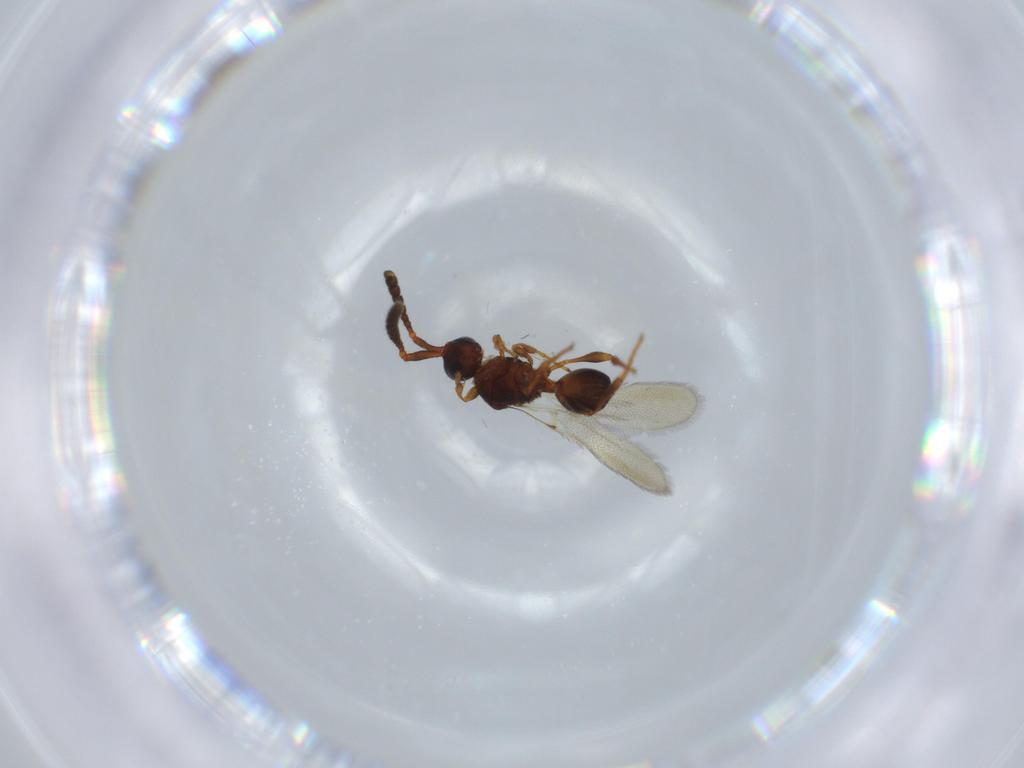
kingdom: Animalia
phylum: Arthropoda
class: Insecta
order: Hymenoptera
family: Diapriidae
